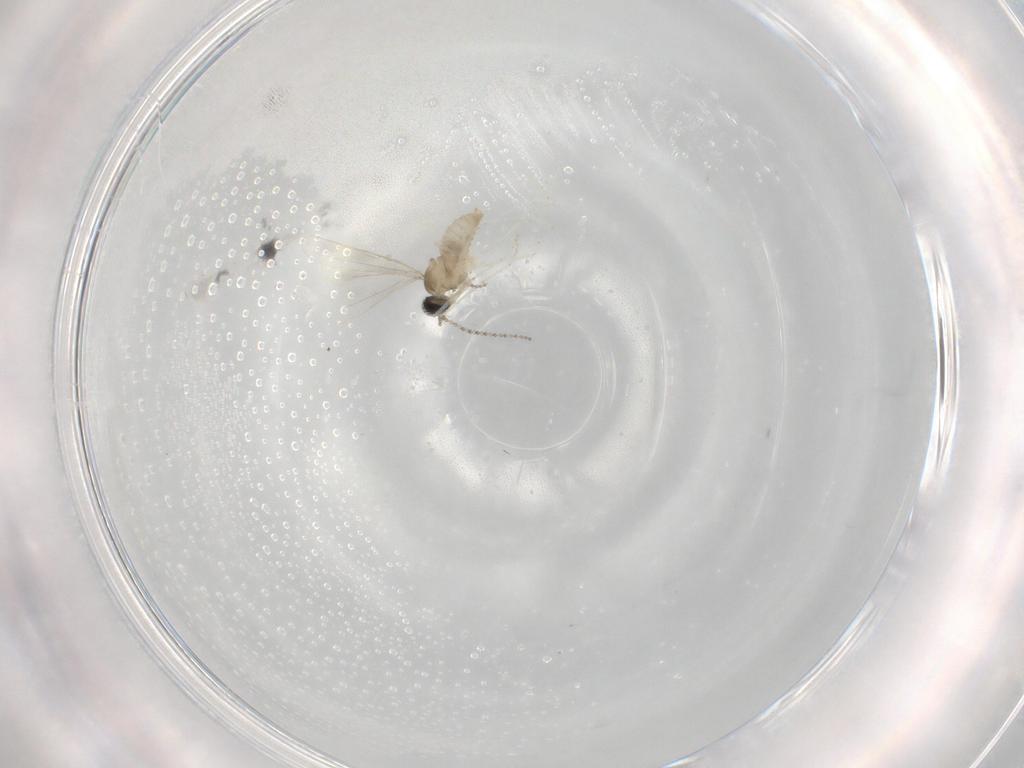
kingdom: Animalia
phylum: Arthropoda
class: Insecta
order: Diptera
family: Cecidomyiidae
